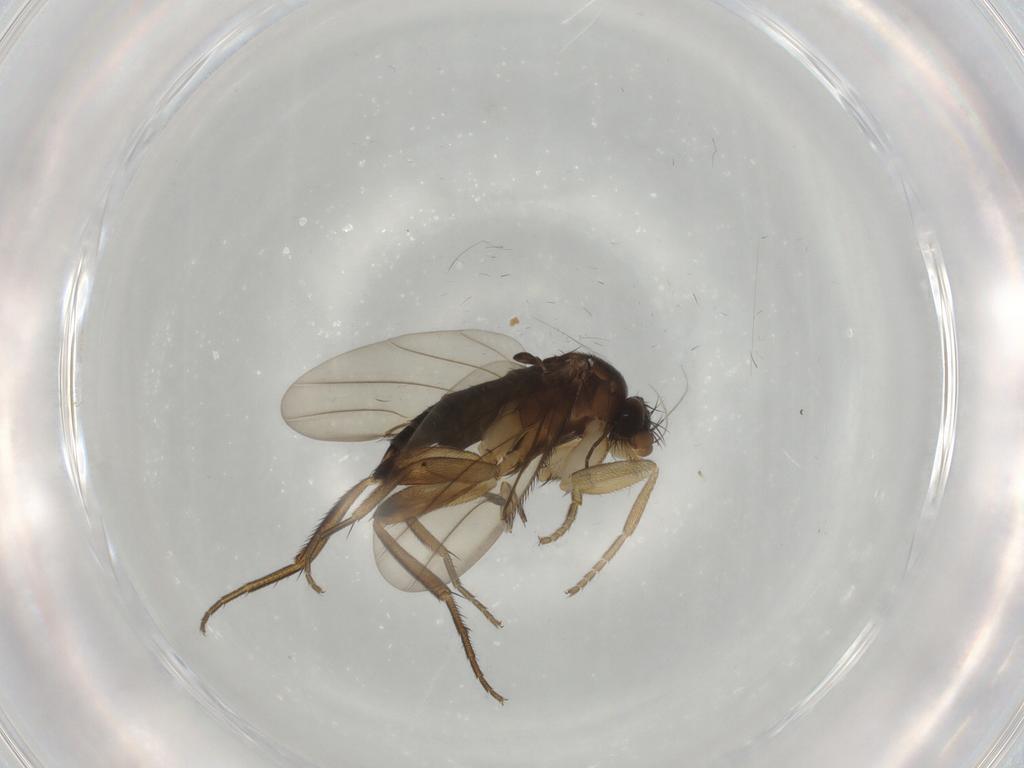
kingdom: Animalia
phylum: Arthropoda
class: Insecta
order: Diptera
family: Phoridae
